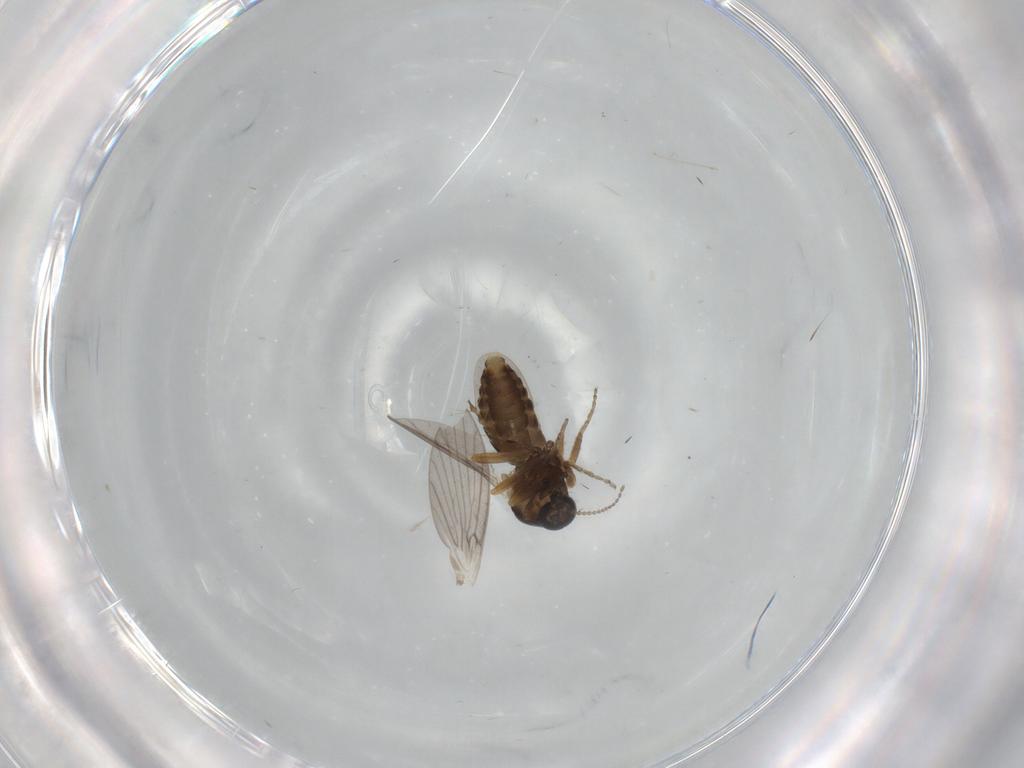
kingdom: Animalia
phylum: Arthropoda
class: Insecta
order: Diptera
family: Ceratopogonidae
